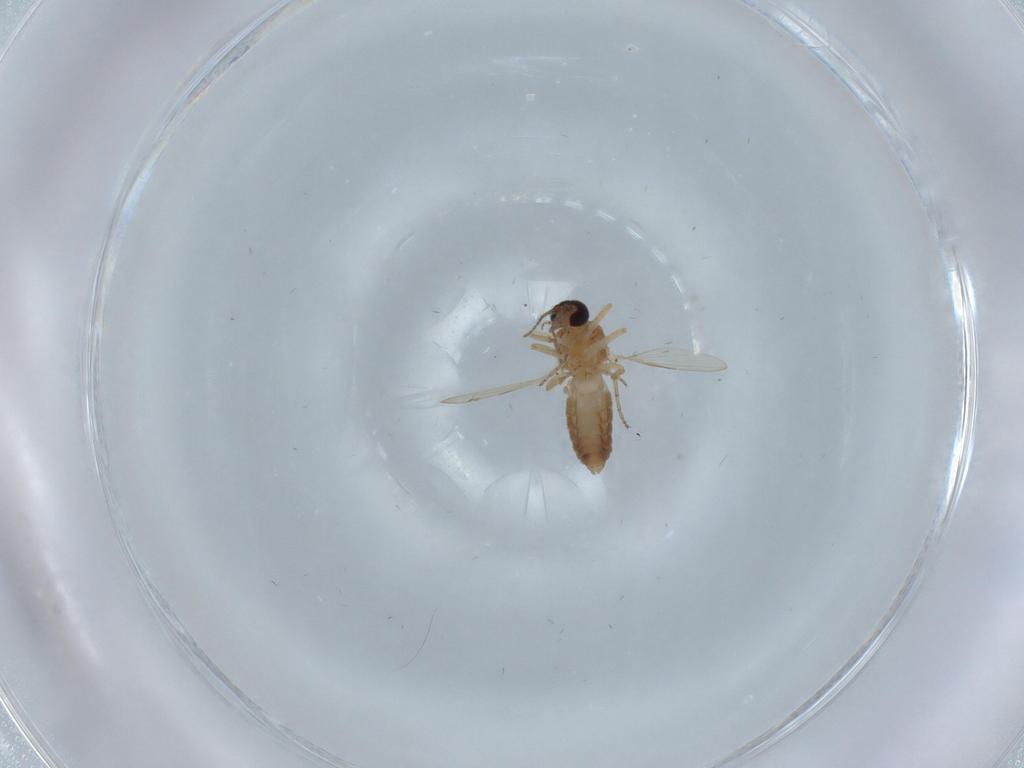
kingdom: Animalia
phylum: Arthropoda
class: Insecta
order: Diptera
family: Ceratopogonidae
